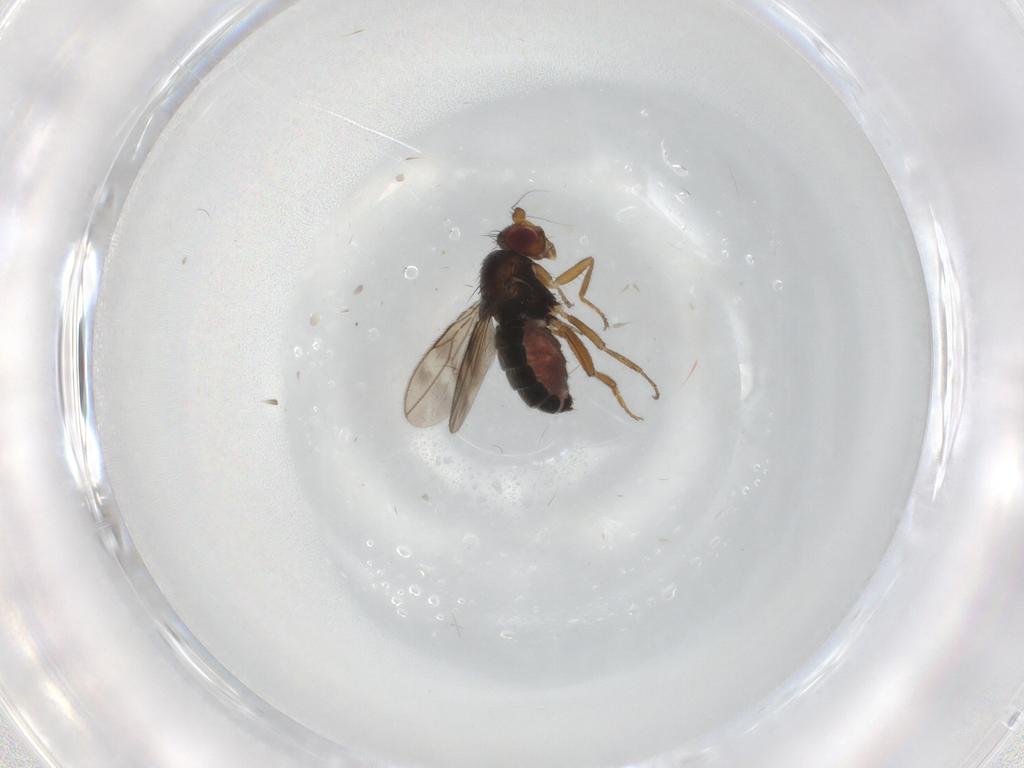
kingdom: Animalia
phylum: Arthropoda
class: Insecta
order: Diptera
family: Sphaeroceridae
